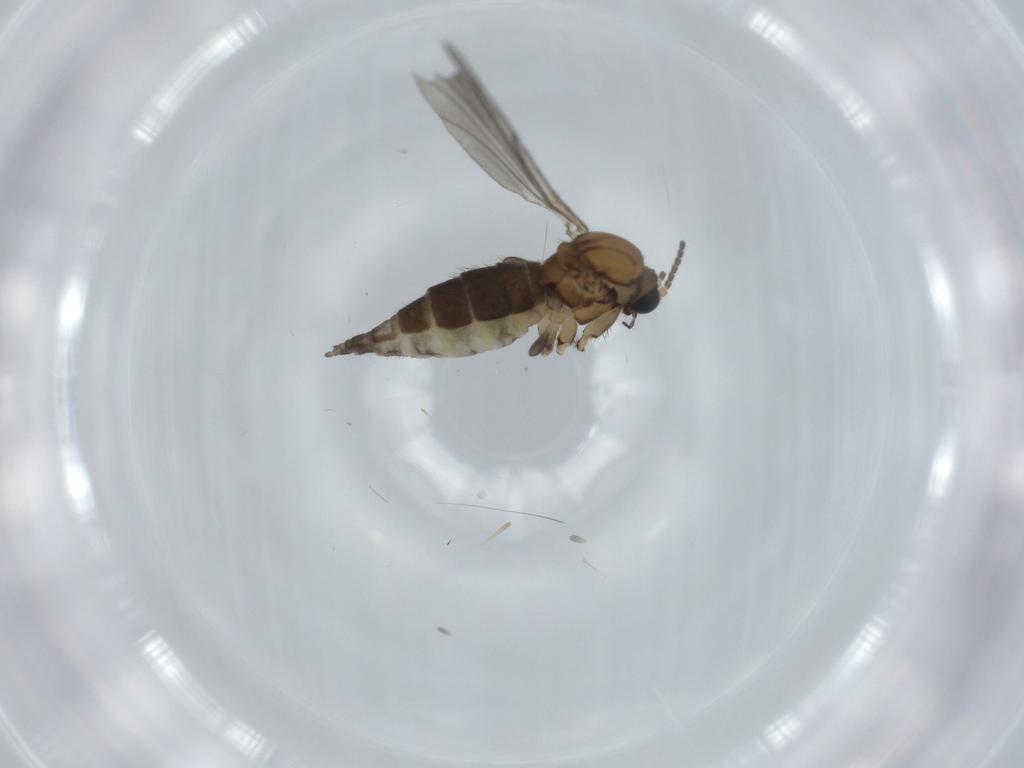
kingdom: Animalia
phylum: Arthropoda
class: Insecta
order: Diptera
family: Sciaridae
